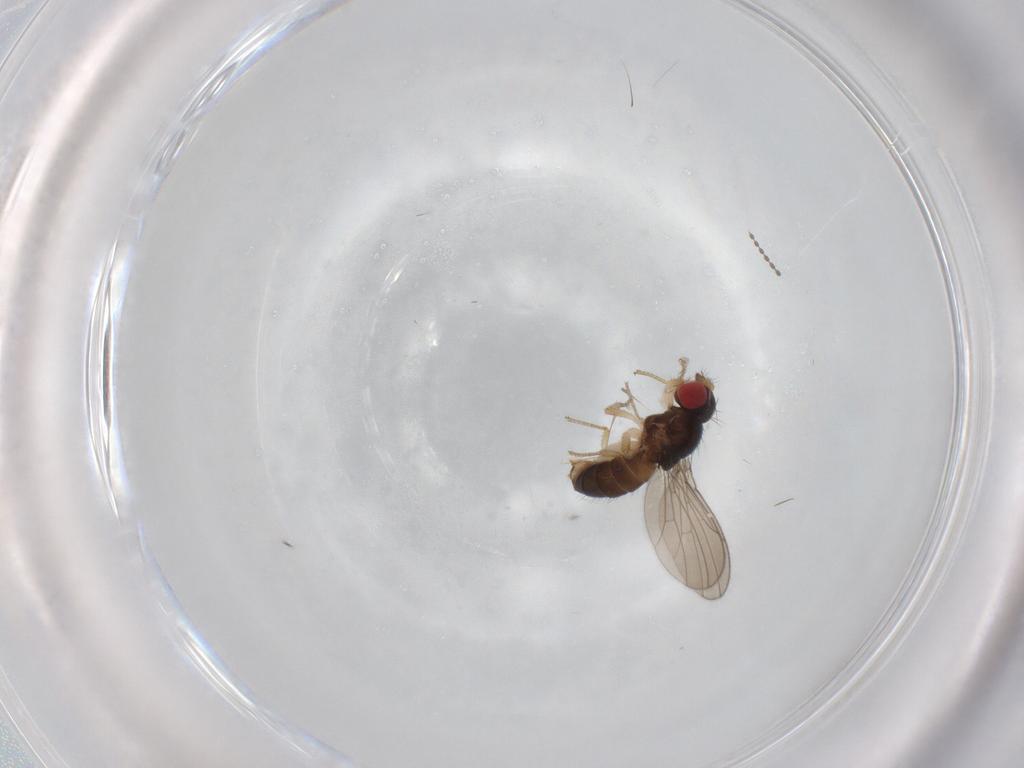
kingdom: Animalia
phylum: Arthropoda
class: Insecta
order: Diptera
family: Drosophilidae
